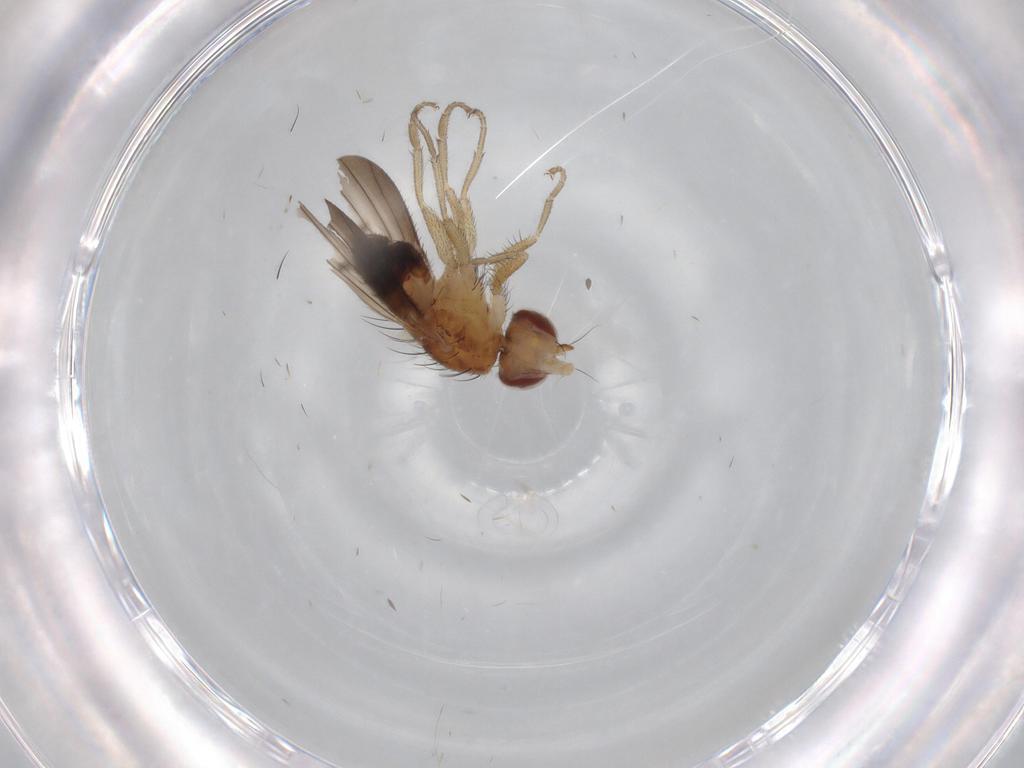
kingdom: Animalia
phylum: Arthropoda
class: Insecta
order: Diptera
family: Heleomyzidae
